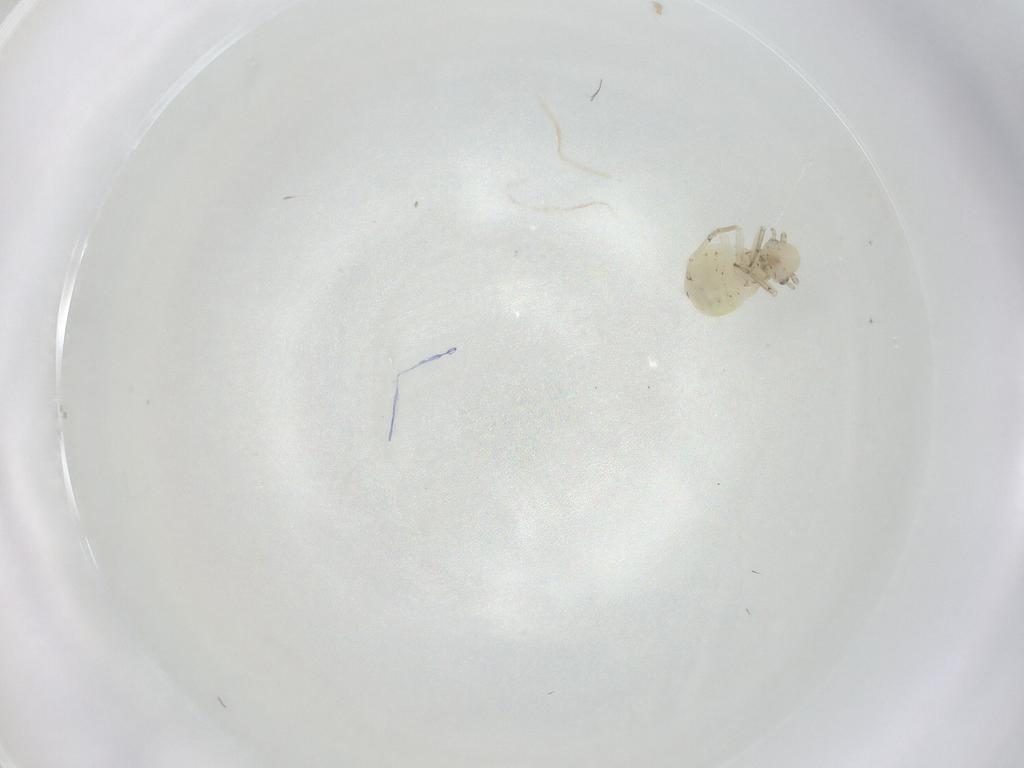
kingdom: Animalia
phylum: Arthropoda
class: Insecta
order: Psocodea
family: Caeciliusidae
